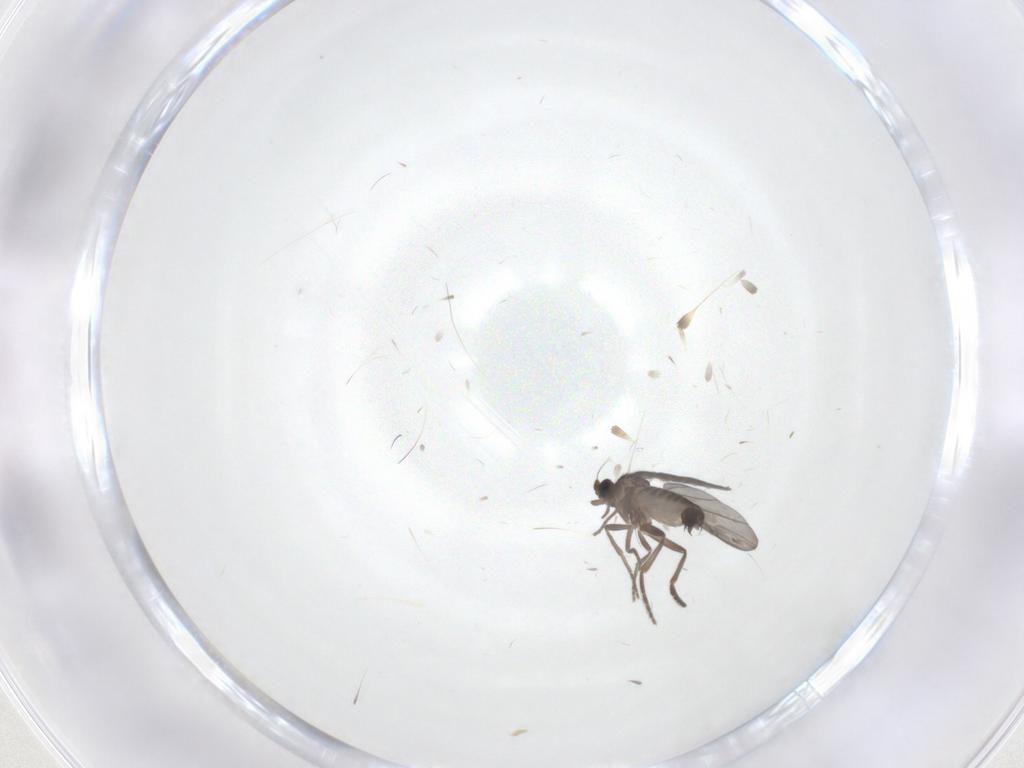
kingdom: Animalia
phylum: Arthropoda
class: Insecta
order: Diptera
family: Phoridae
